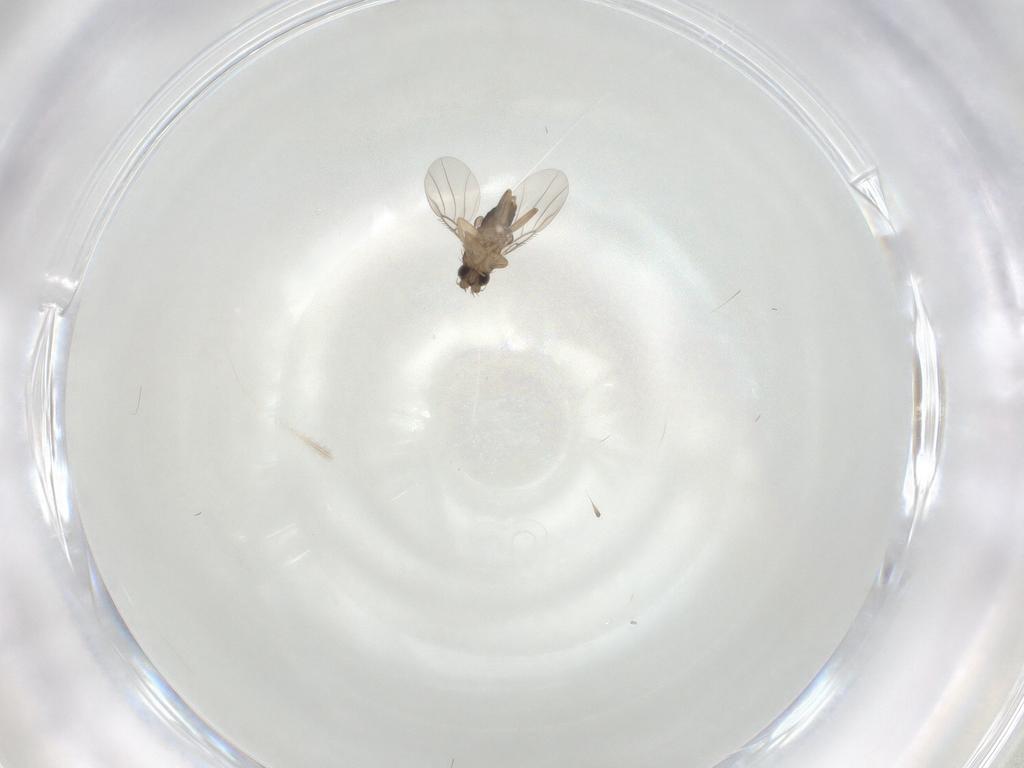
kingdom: Animalia
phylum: Arthropoda
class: Insecta
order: Diptera
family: Phoridae
